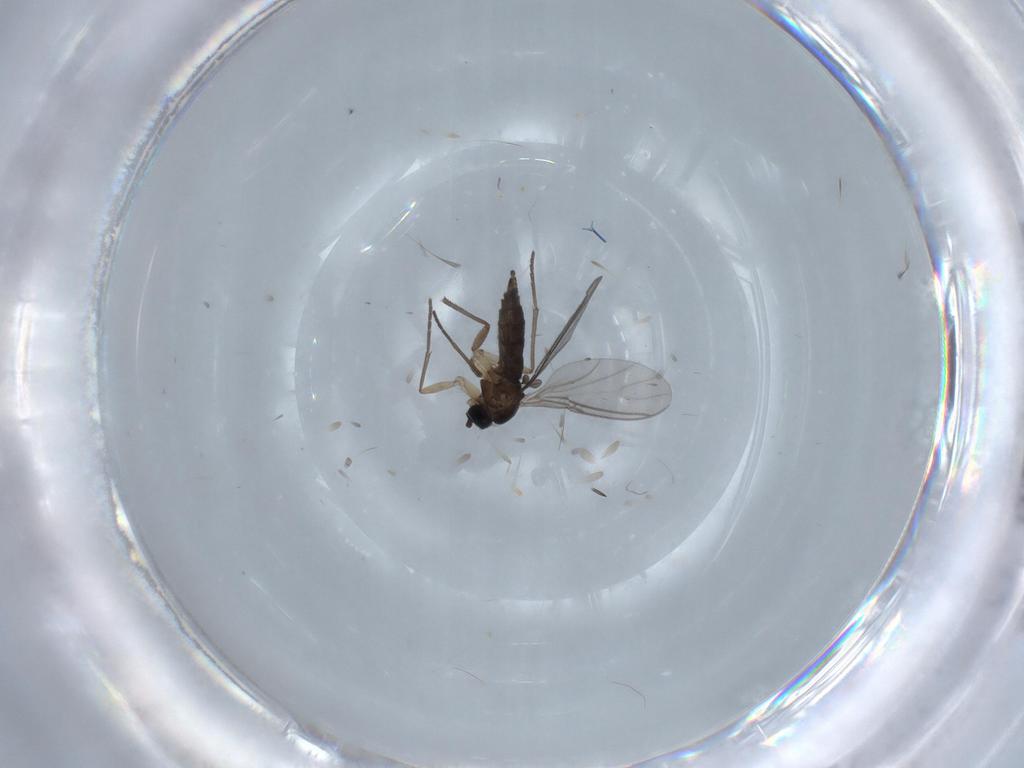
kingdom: Animalia
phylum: Arthropoda
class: Insecta
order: Diptera
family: Sciaridae
